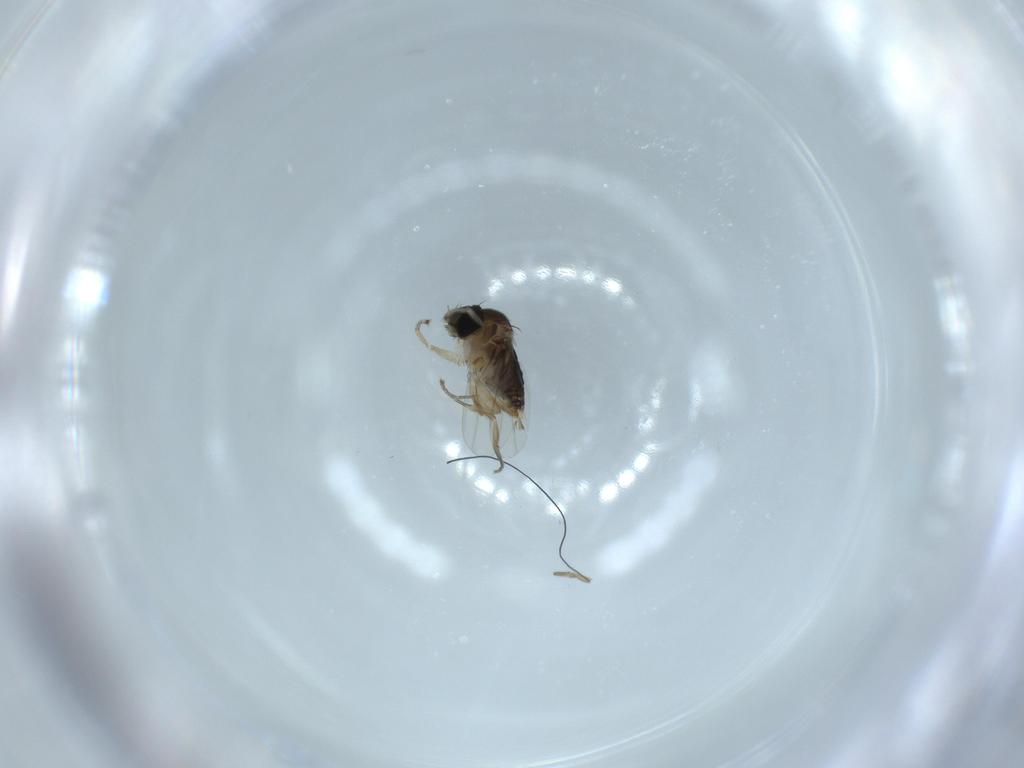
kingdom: Animalia
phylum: Arthropoda
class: Insecta
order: Diptera
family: Phoridae
